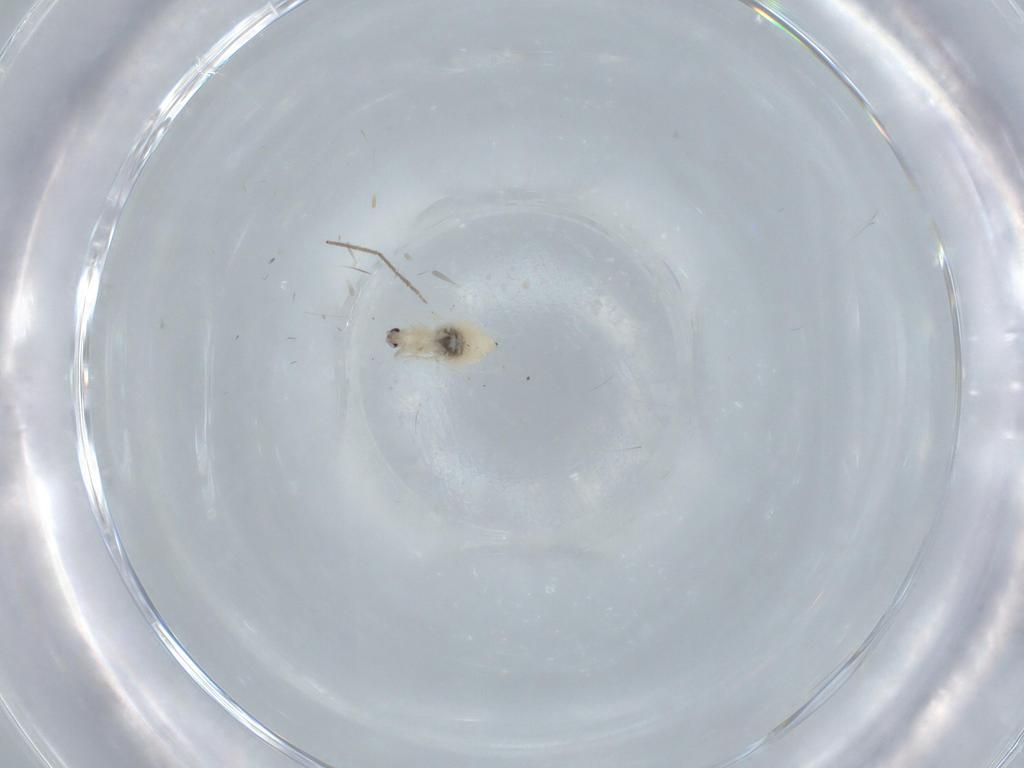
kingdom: Animalia
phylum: Arthropoda
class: Insecta
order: Diptera
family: Cecidomyiidae
